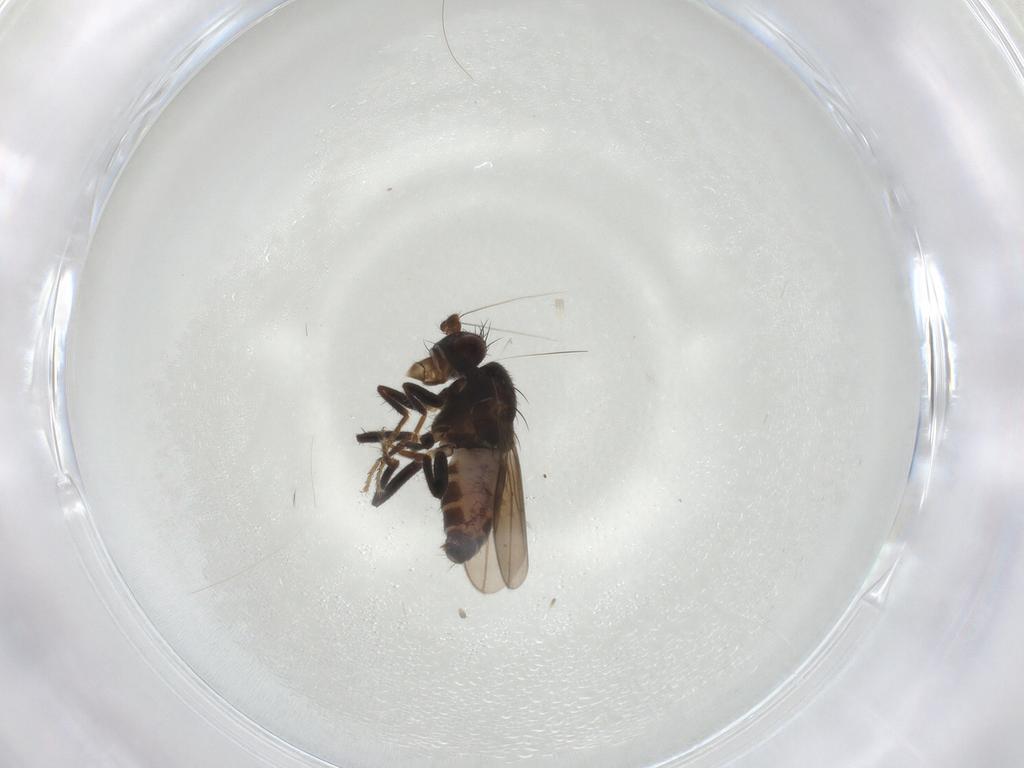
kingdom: Animalia
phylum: Arthropoda
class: Insecta
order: Diptera
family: Sphaeroceridae
